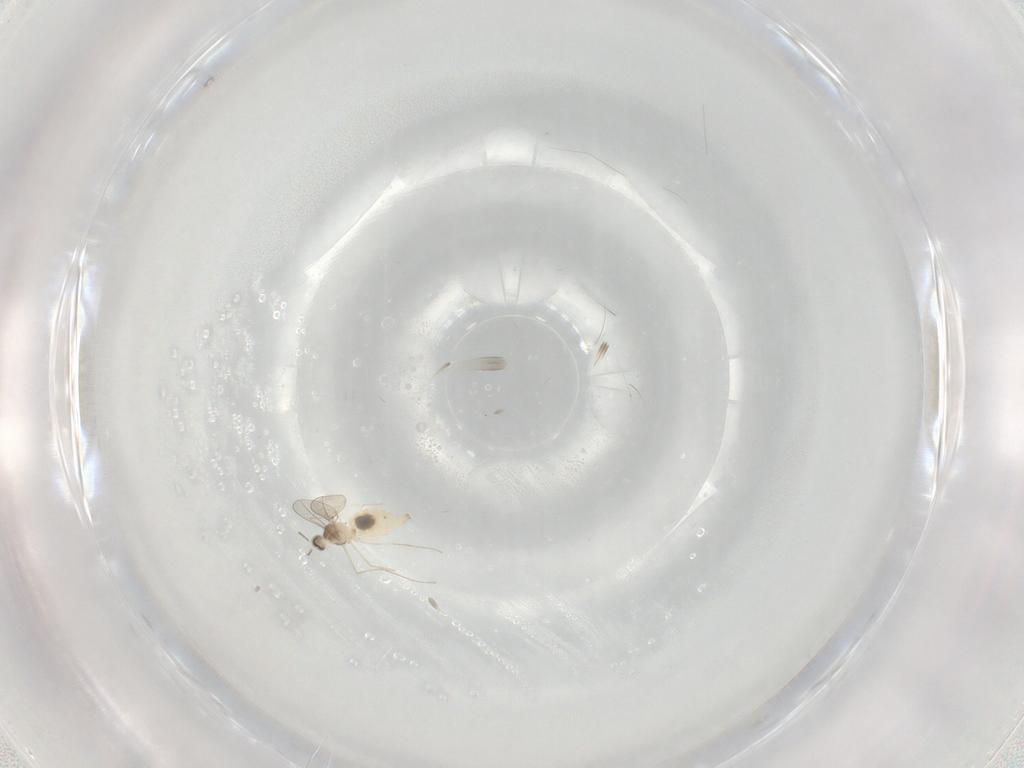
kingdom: Animalia
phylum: Arthropoda
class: Insecta
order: Diptera
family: Cecidomyiidae
